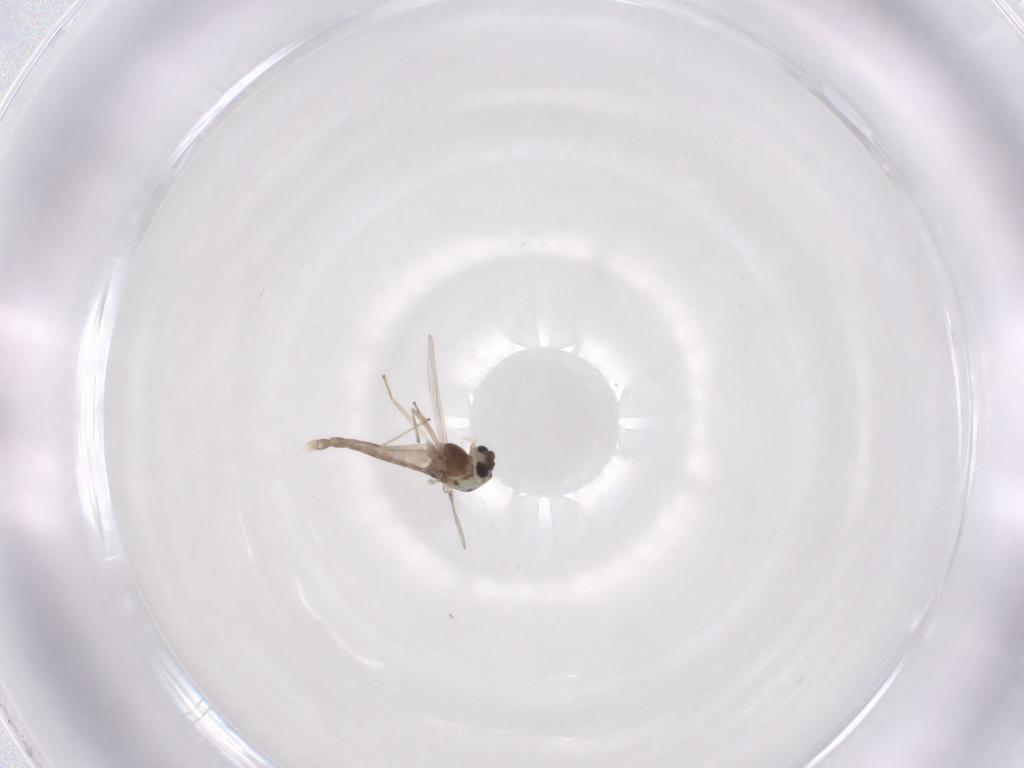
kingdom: Animalia
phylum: Arthropoda
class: Insecta
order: Diptera
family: Chironomidae
